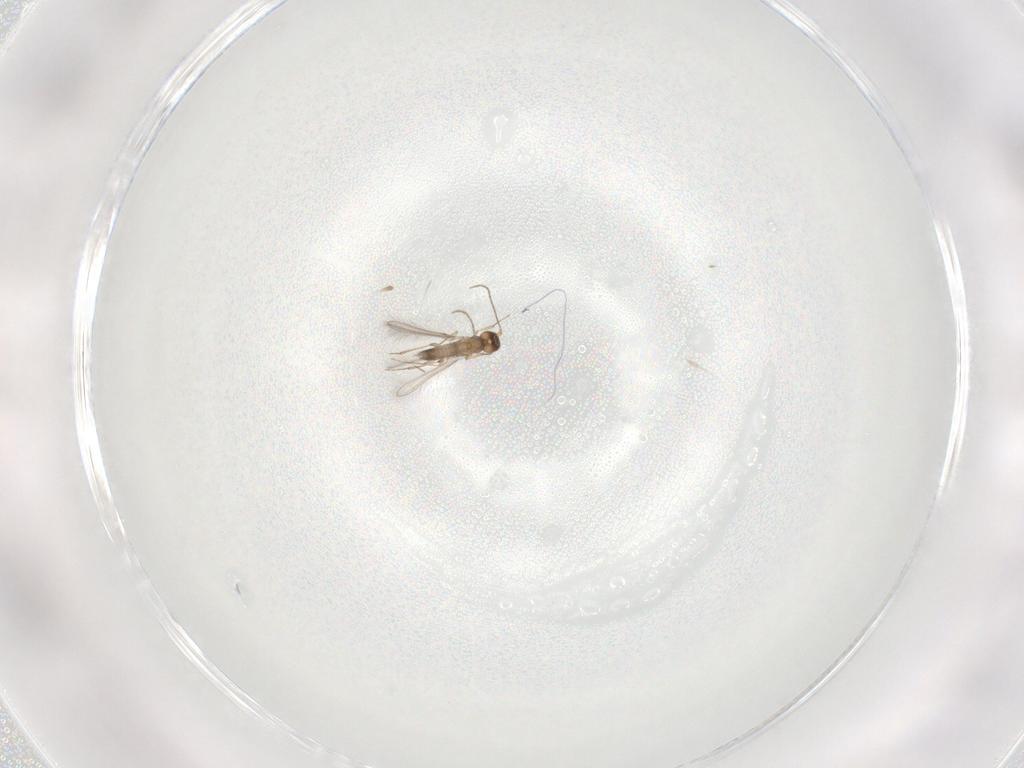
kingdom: Animalia
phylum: Arthropoda
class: Insecta
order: Hymenoptera
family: Mymaridae
